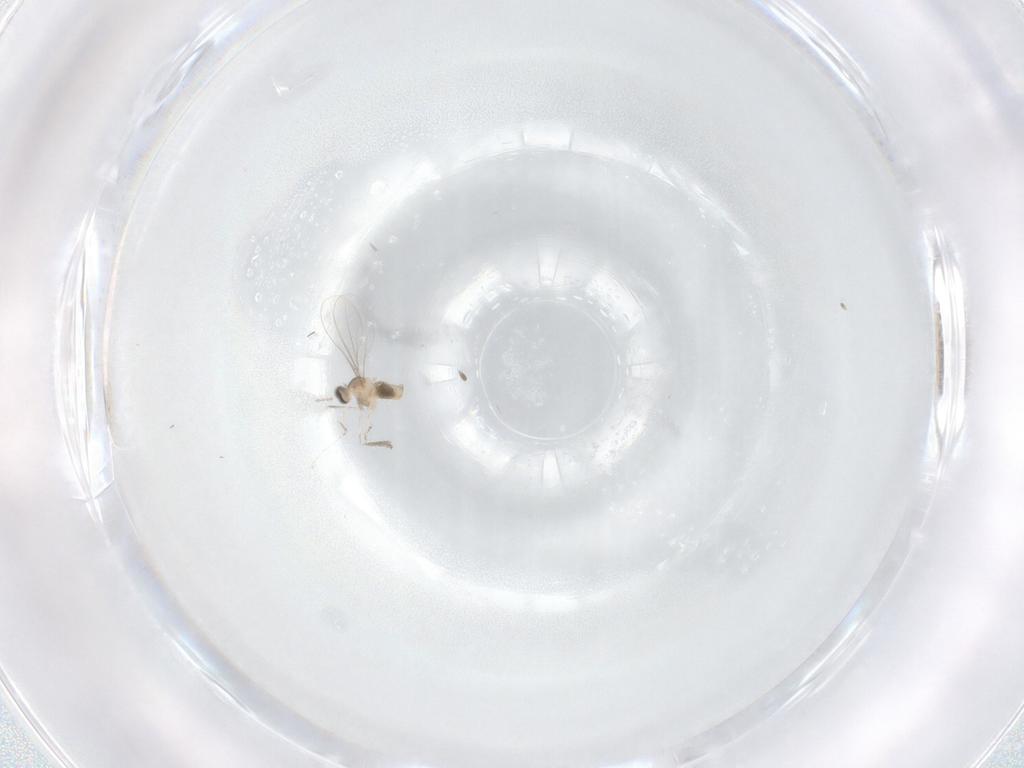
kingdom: Animalia
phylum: Arthropoda
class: Insecta
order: Diptera
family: Cecidomyiidae
